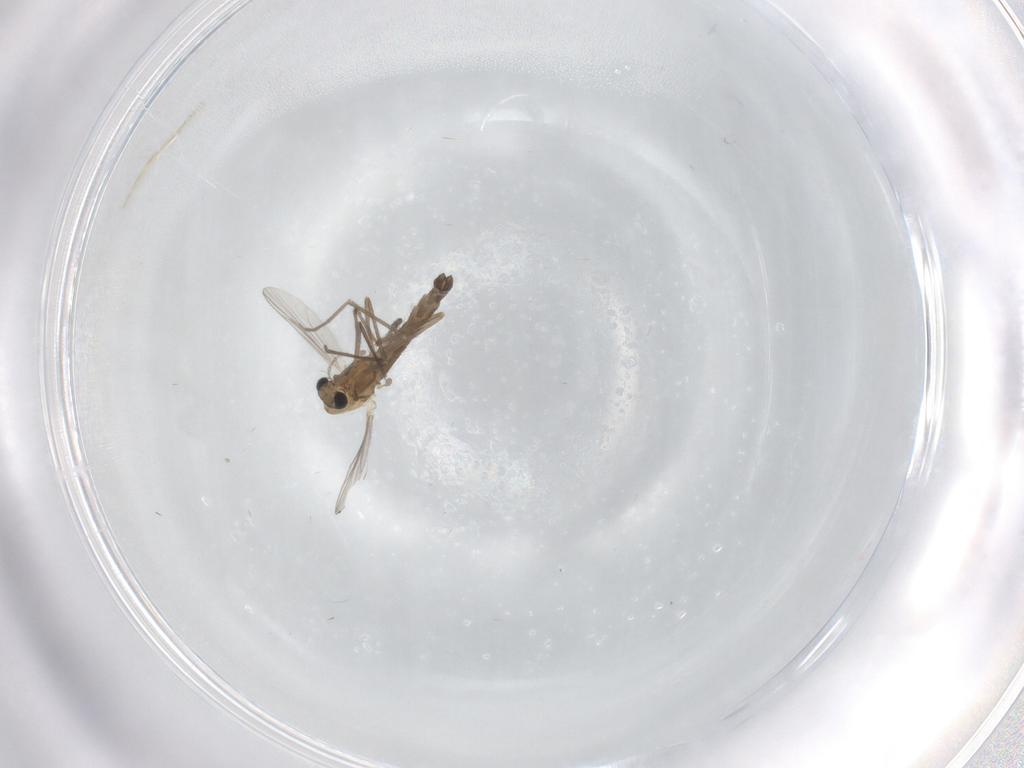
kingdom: Animalia
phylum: Arthropoda
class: Insecta
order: Diptera
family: Chironomidae
